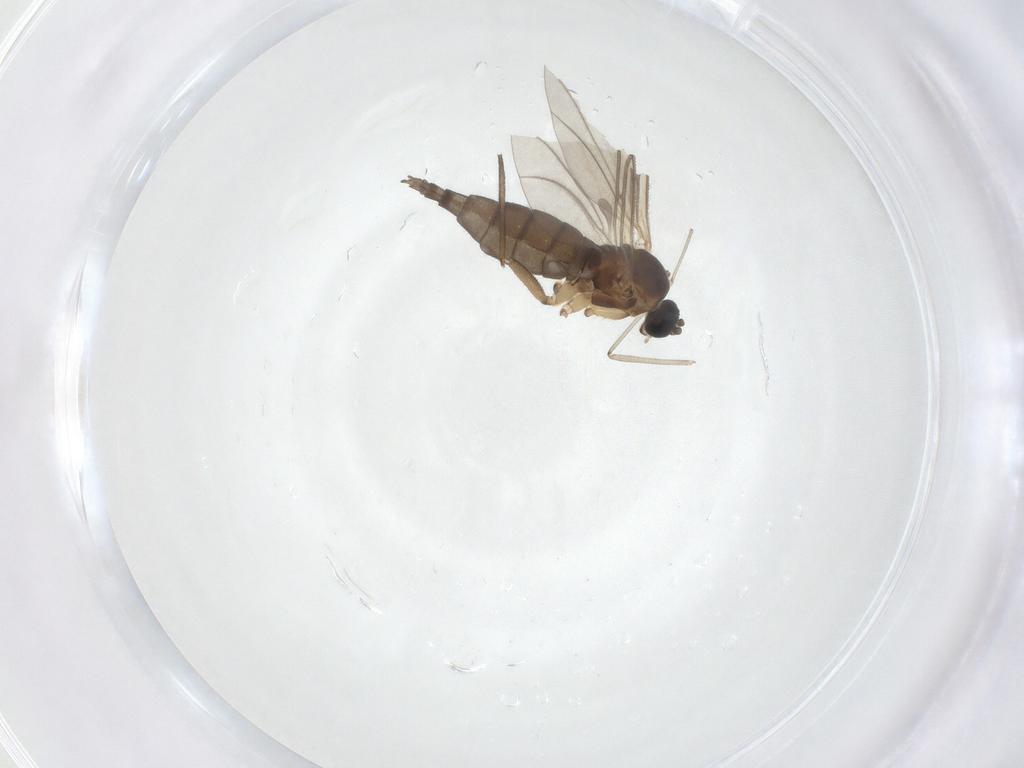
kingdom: Animalia
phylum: Arthropoda
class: Insecta
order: Diptera
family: Sciaridae
